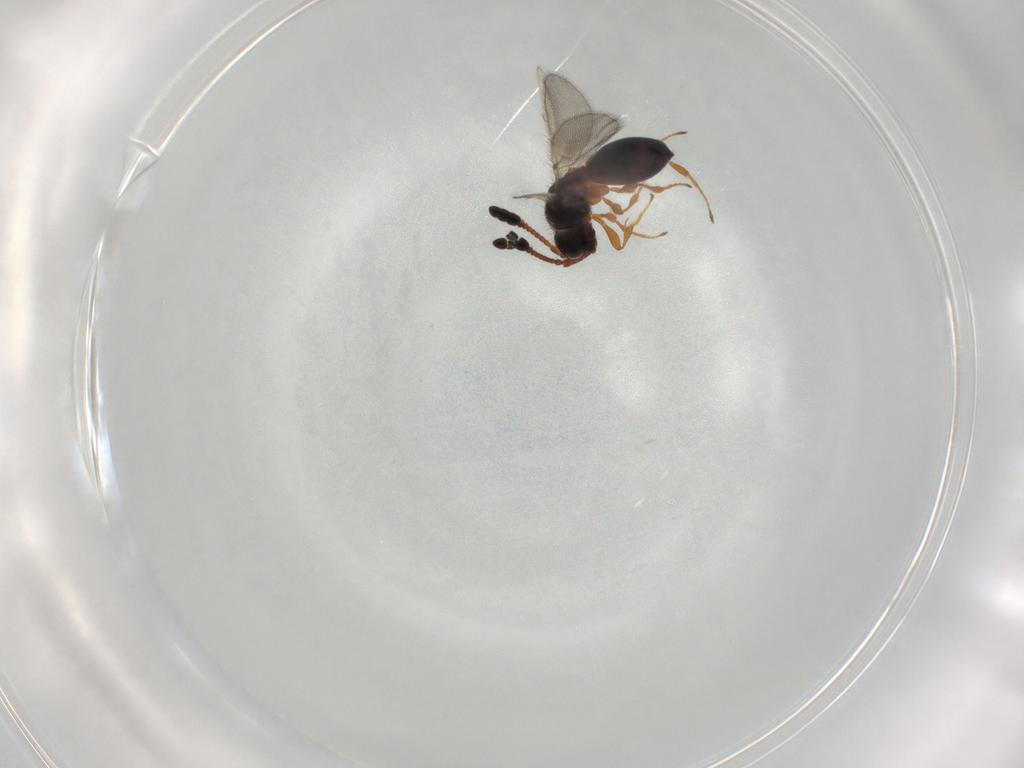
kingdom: Animalia
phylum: Arthropoda
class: Insecta
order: Hymenoptera
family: Diapriidae
